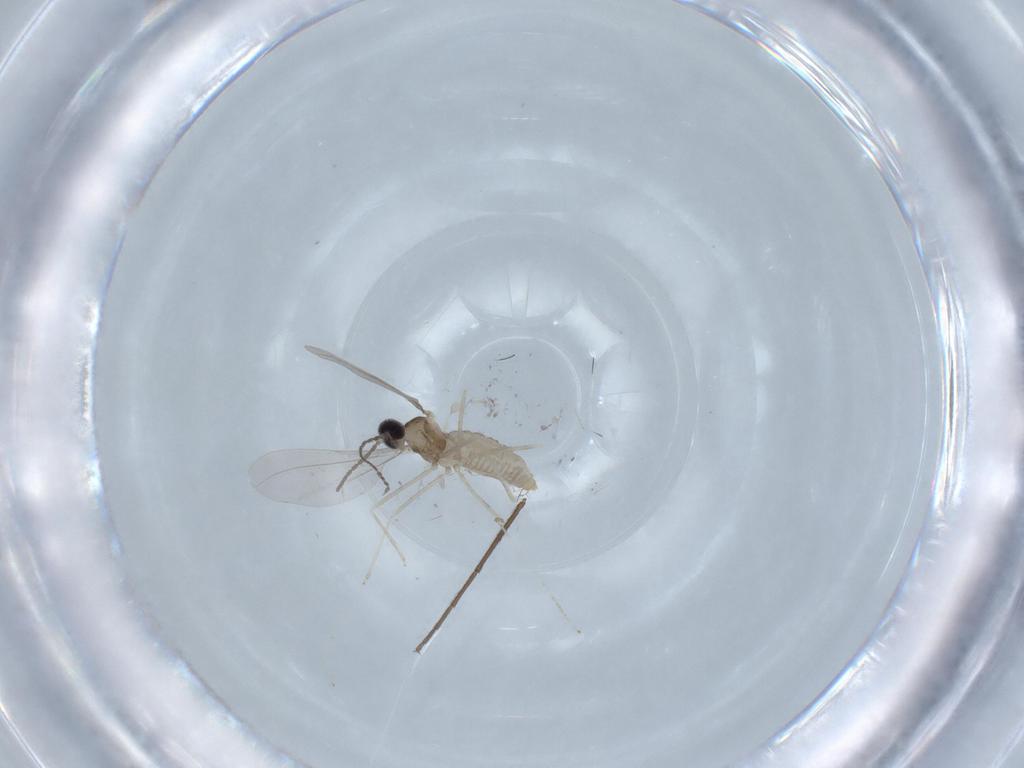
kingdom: Animalia
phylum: Arthropoda
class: Insecta
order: Diptera
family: Cecidomyiidae
